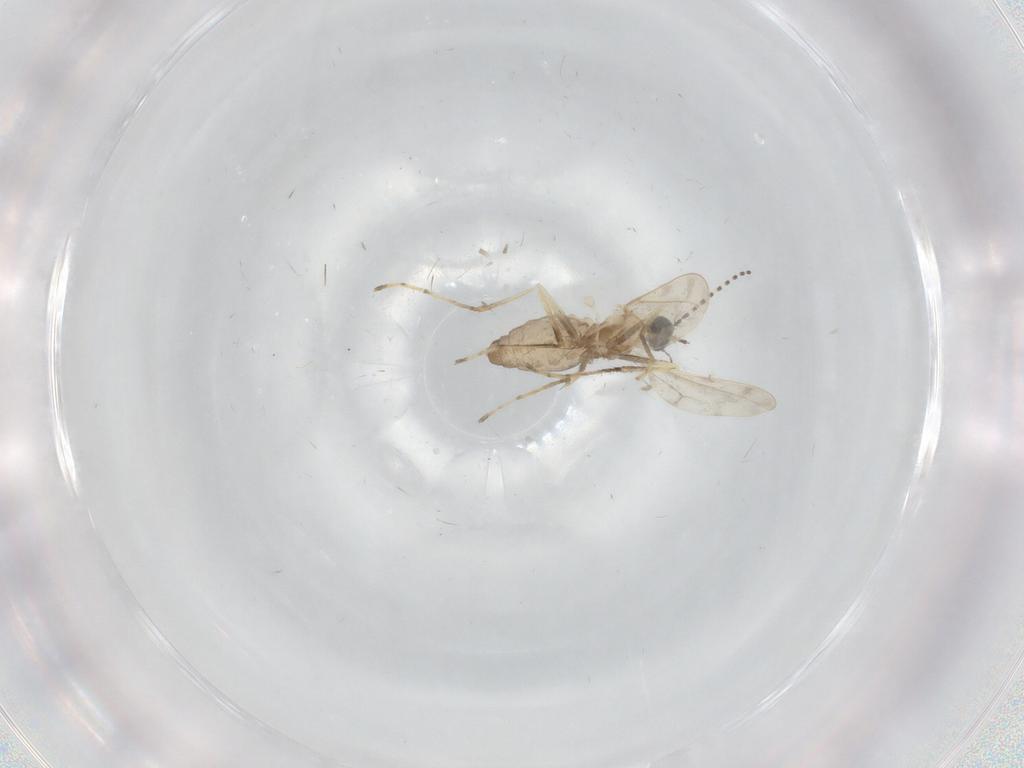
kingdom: Animalia
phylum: Arthropoda
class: Insecta
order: Diptera
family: Cecidomyiidae
